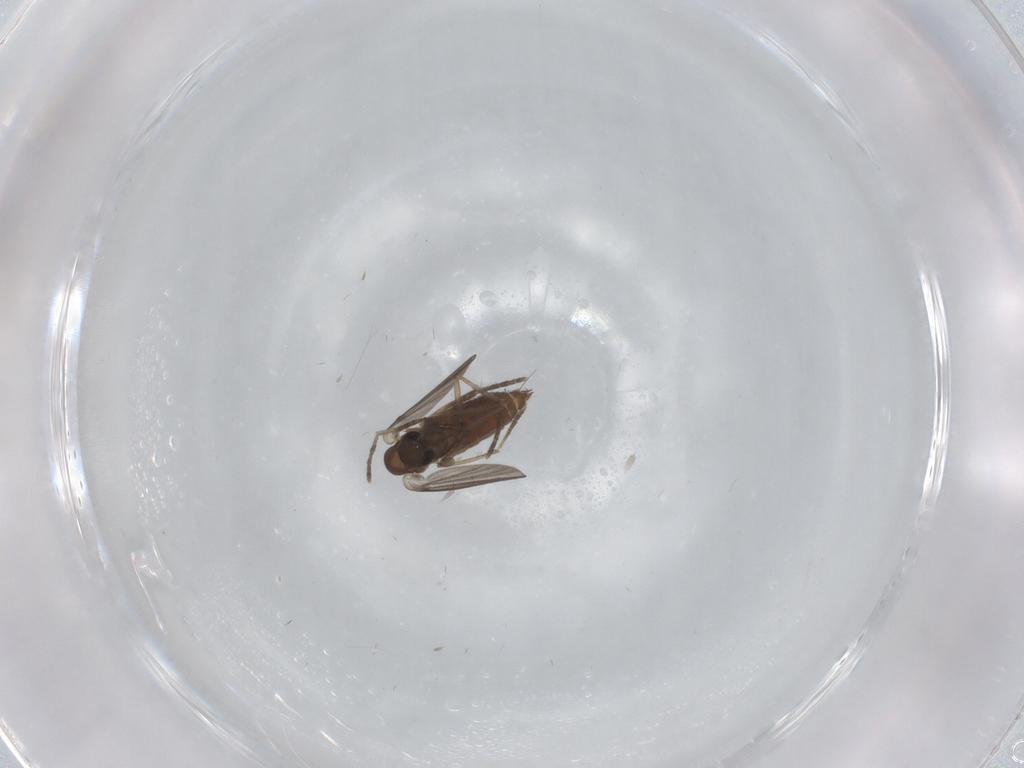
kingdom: Animalia
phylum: Arthropoda
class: Insecta
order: Diptera
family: Psychodidae
